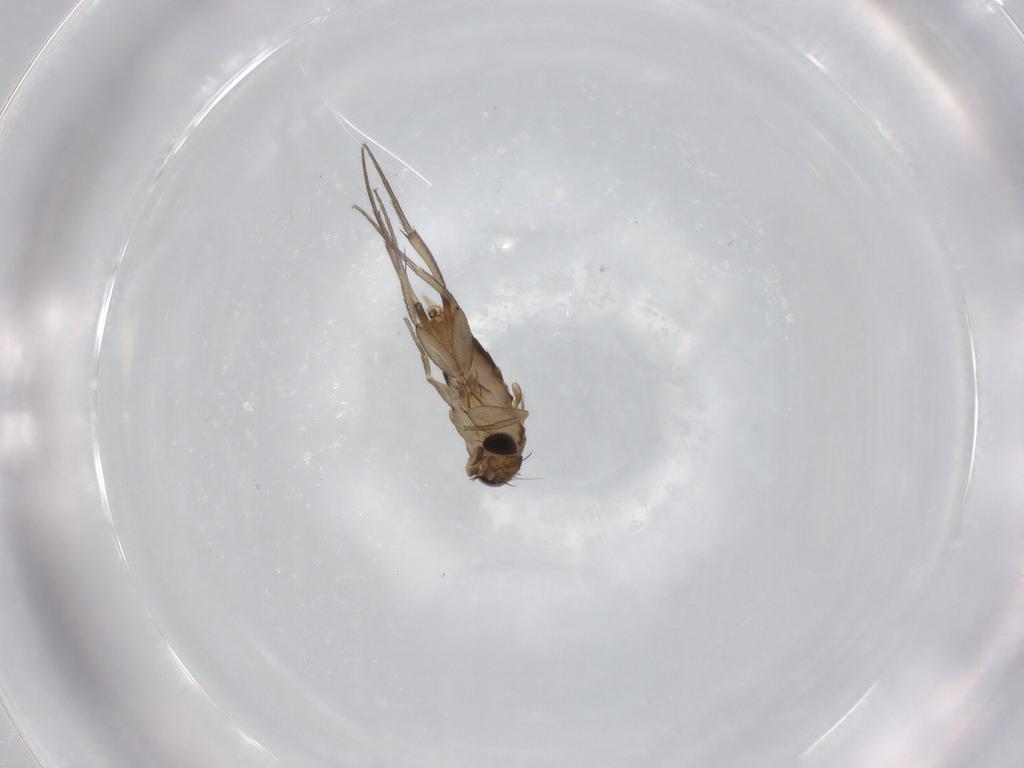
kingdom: Animalia
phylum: Arthropoda
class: Insecta
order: Diptera
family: Phoridae
